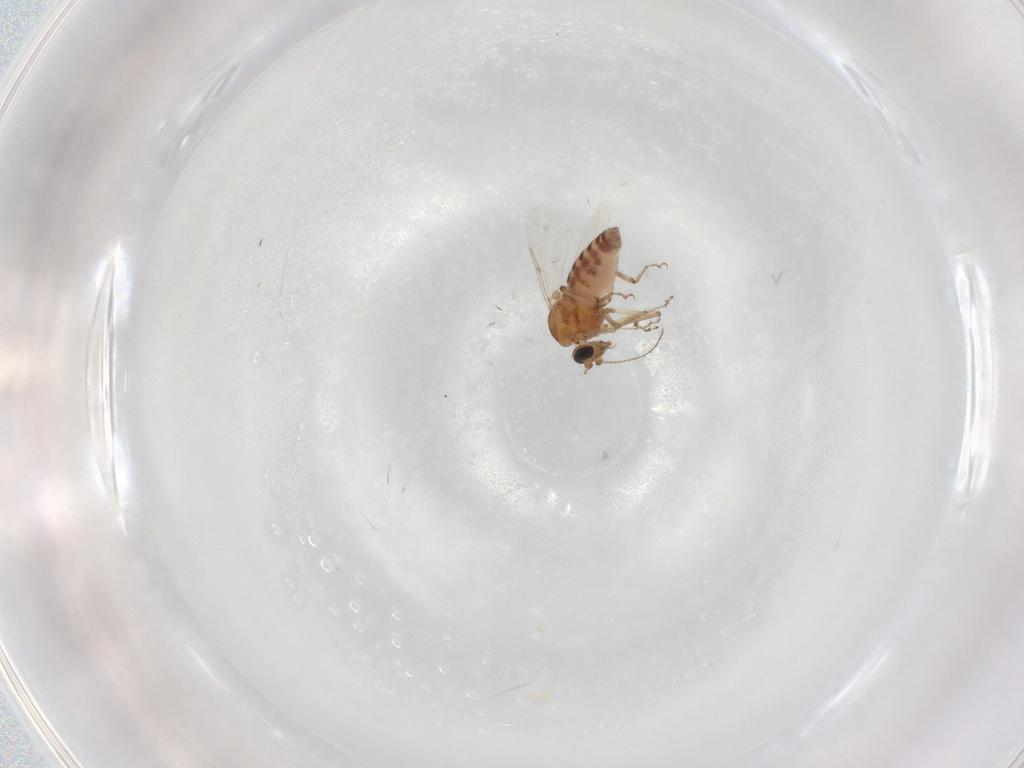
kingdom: Animalia
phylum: Arthropoda
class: Insecta
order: Diptera
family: Ceratopogonidae
